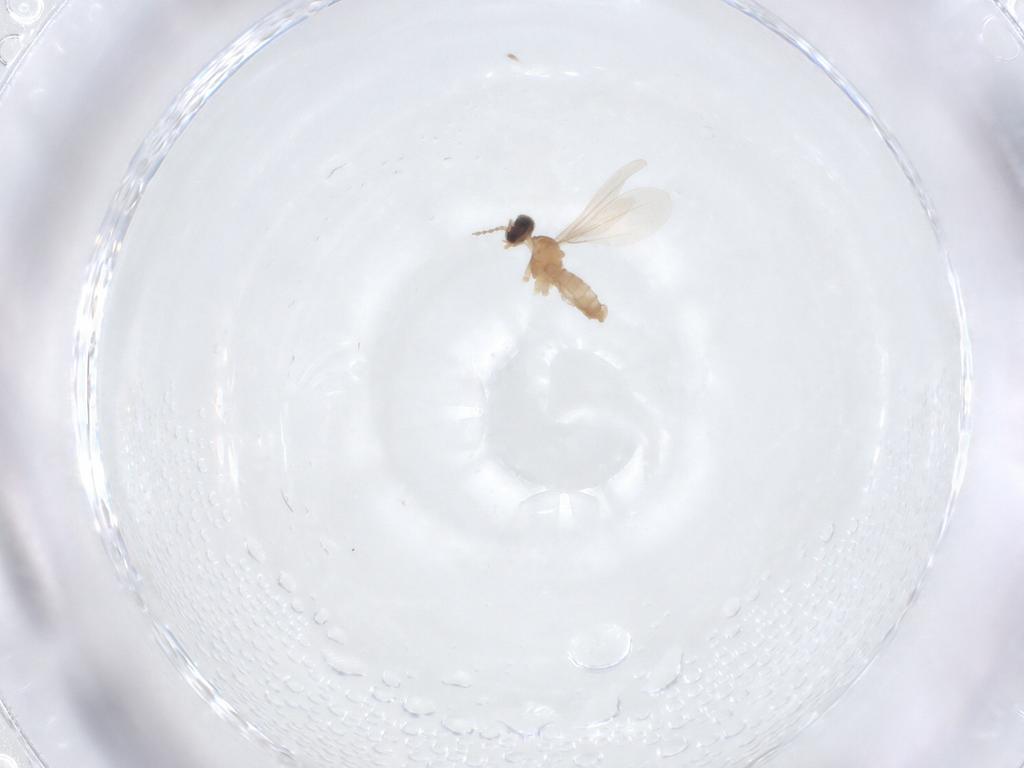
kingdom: Animalia
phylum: Arthropoda
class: Insecta
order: Diptera
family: Cecidomyiidae
